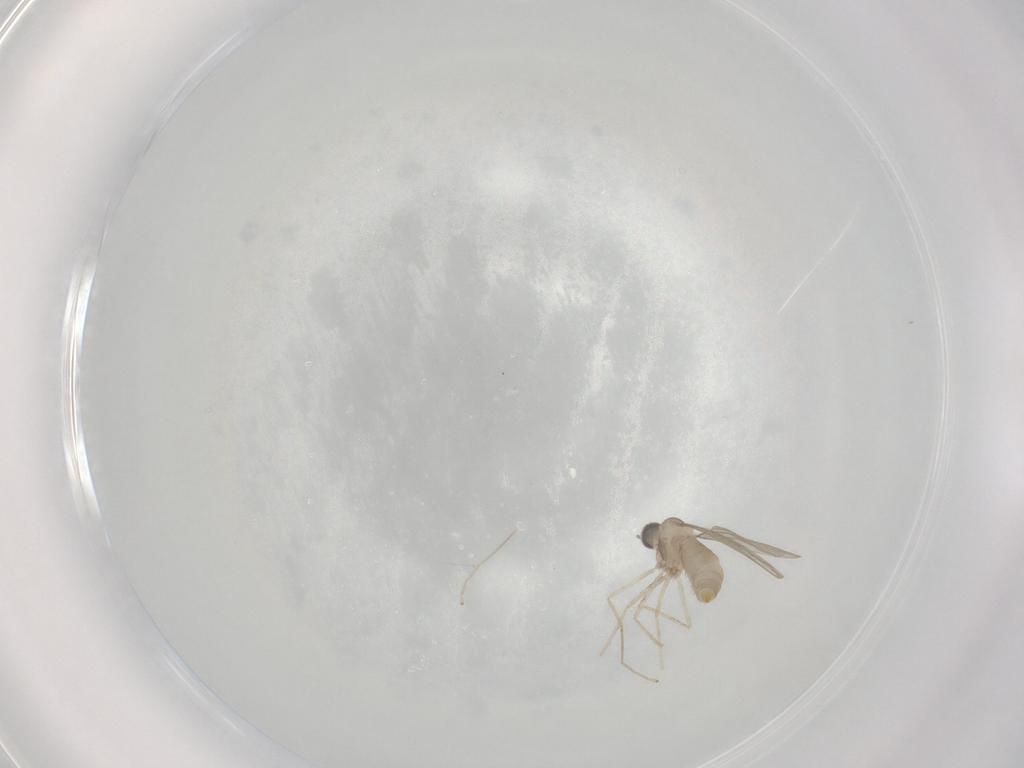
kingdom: Animalia
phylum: Arthropoda
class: Insecta
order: Diptera
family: Cecidomyiidae
